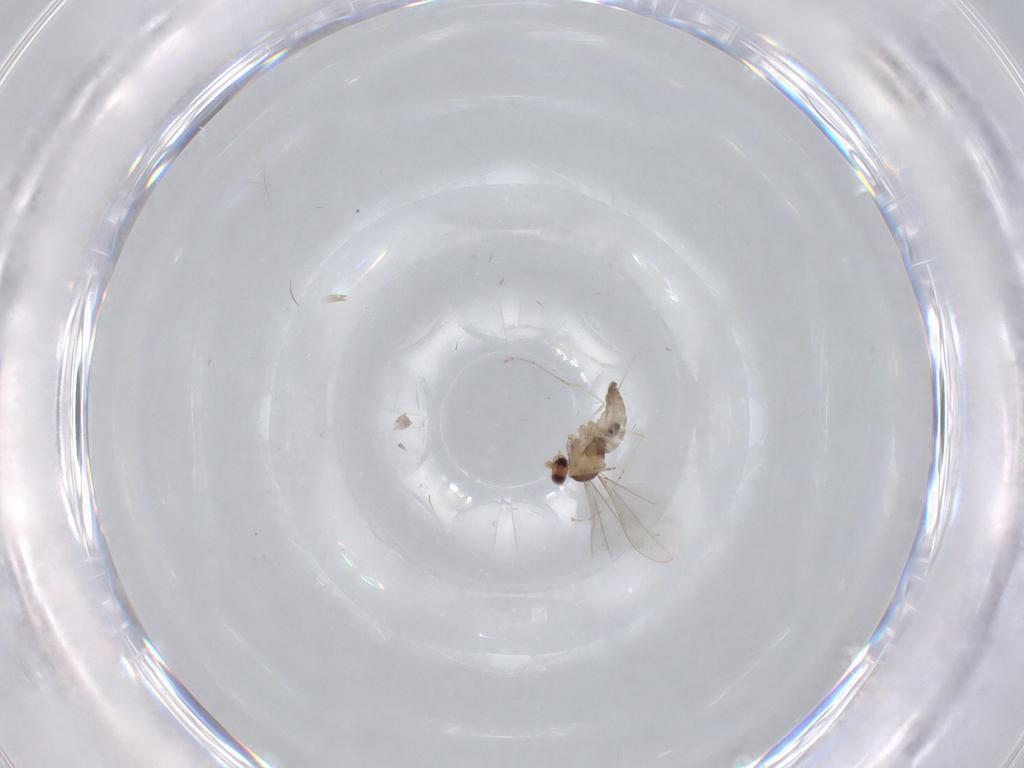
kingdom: Animalia
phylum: Arthropoda
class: Insecta
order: Diptera
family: Cecidomyiidae
